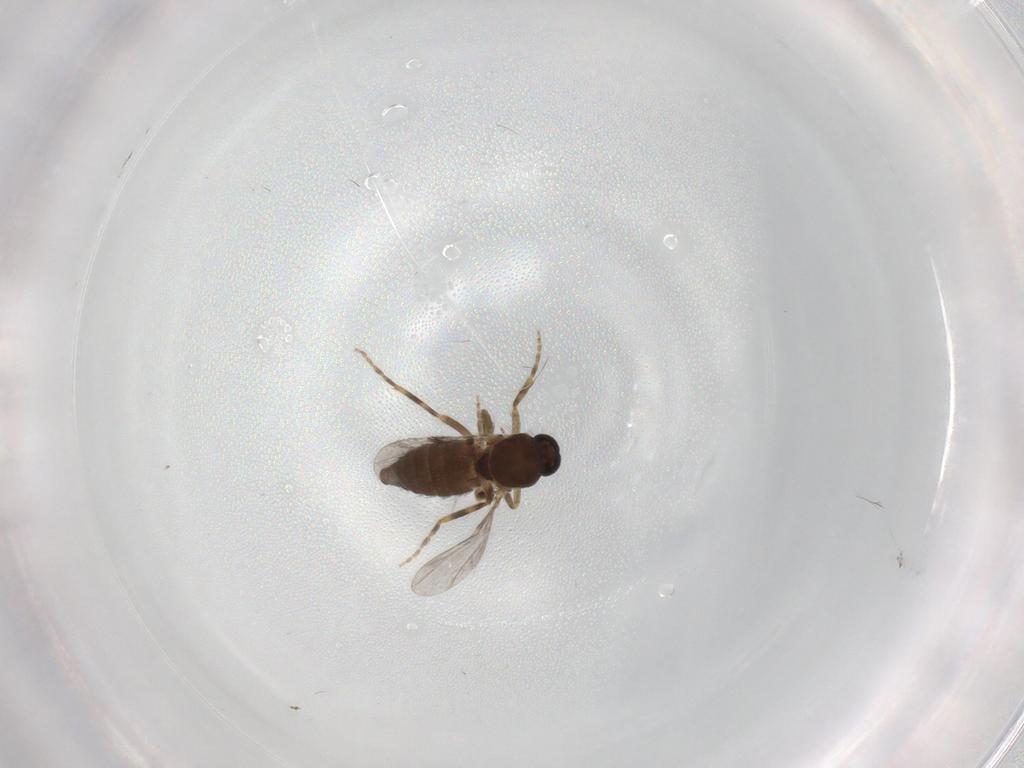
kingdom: Animalia
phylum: Arthropoda
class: Insecta
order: Diptera
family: Ceratopogonidae
